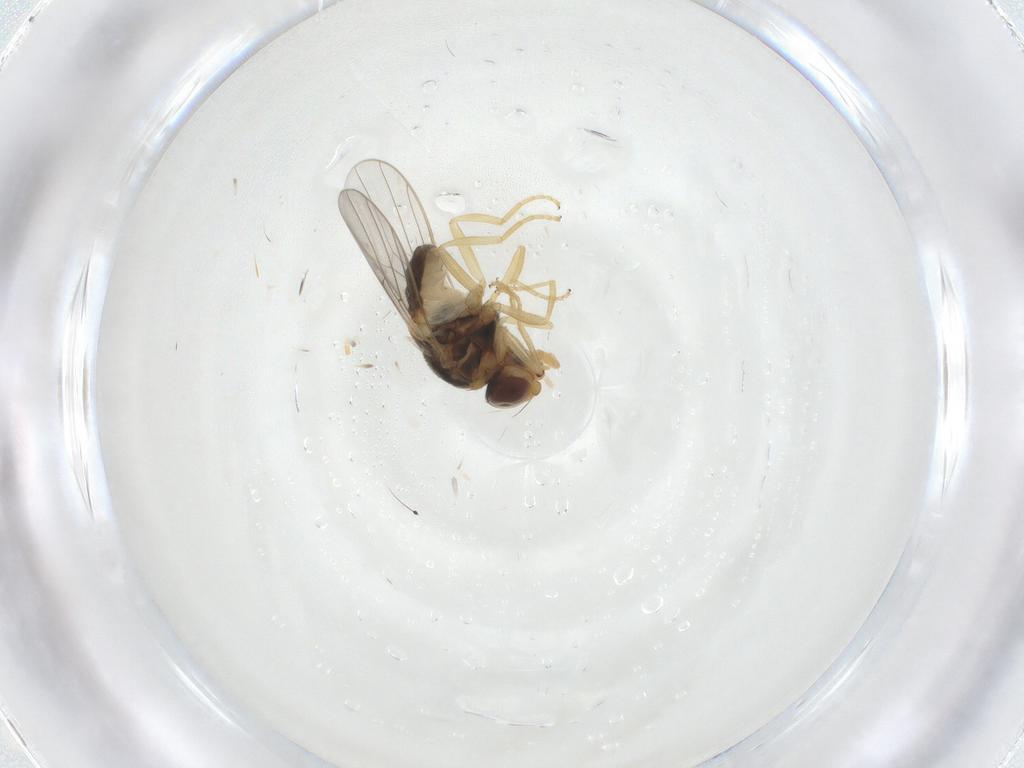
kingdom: Animalia
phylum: Arthropoda
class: Insecta
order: Diptera
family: Chloropidae
